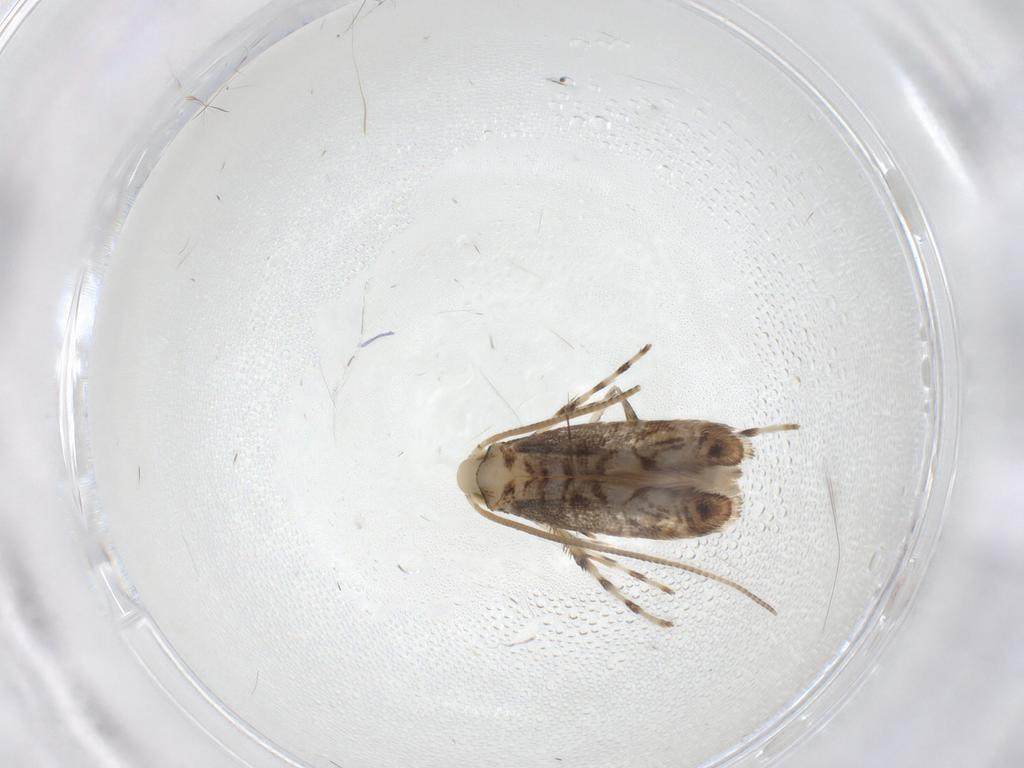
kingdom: Animalia
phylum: Arthropoda
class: Insecta
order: Lepidoptera
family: Gracillariidae
